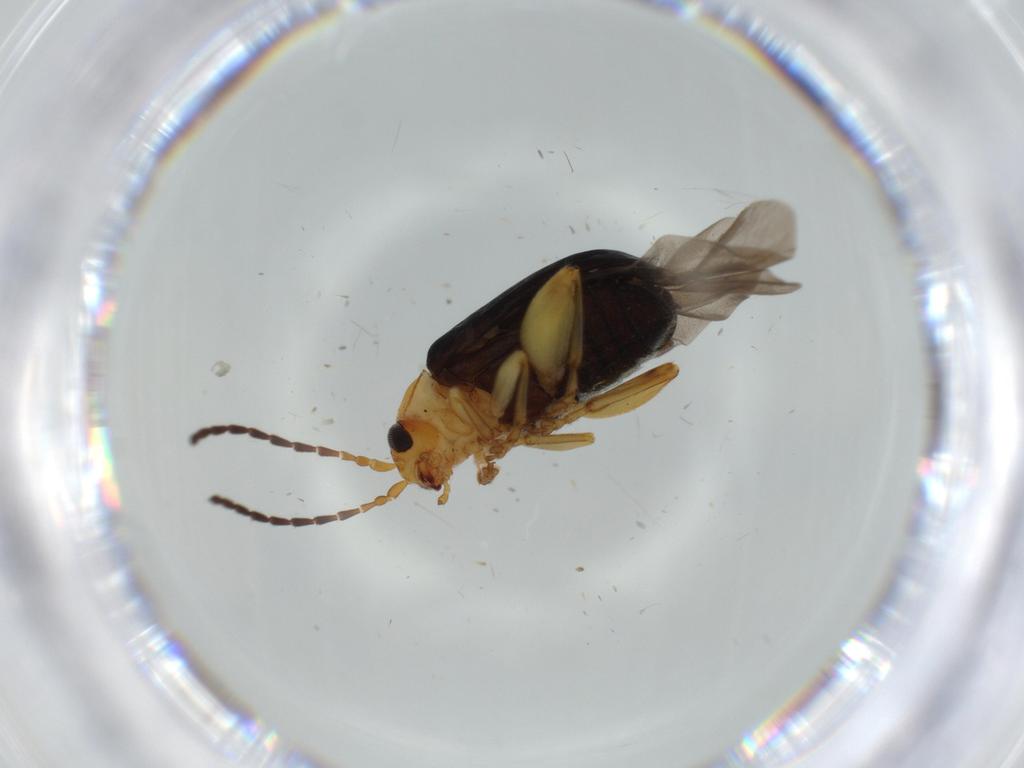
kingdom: Animalia
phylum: Arthropoda
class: Insecta
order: Coleoptera
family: Chrysomelidae
